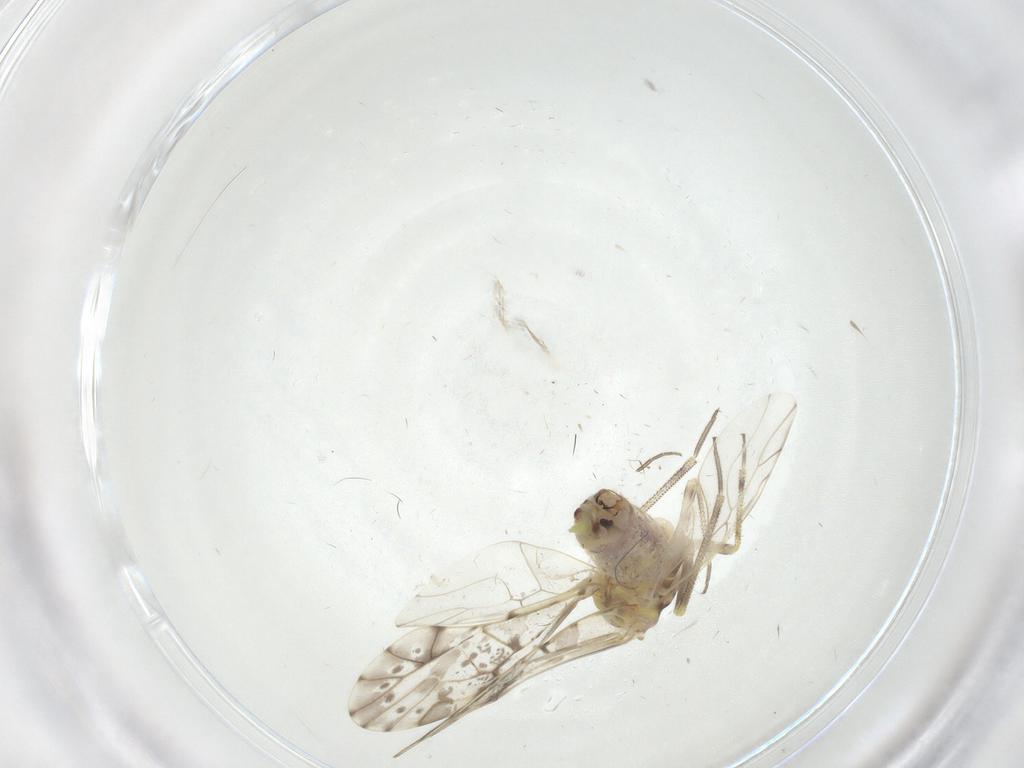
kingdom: Animalia
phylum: Arthropoda
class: Insecta
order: Psocodea
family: Psocidae
